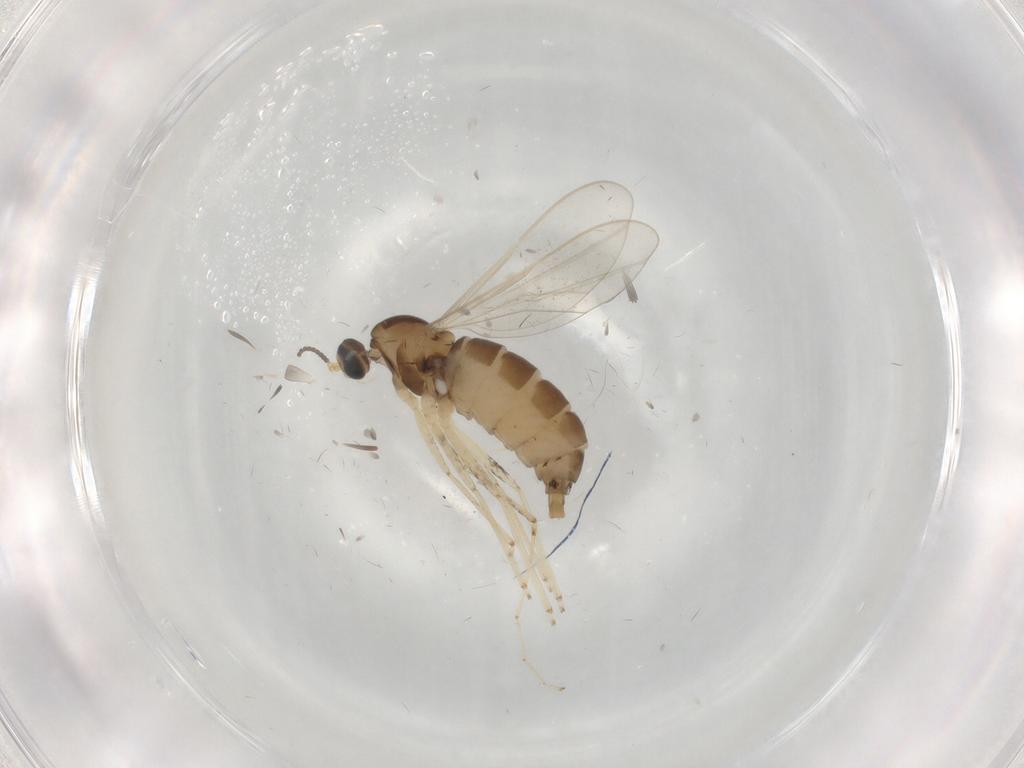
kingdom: Animalia
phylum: Arthropoda
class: Insecta
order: Diptera
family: Cecidomyiidae
